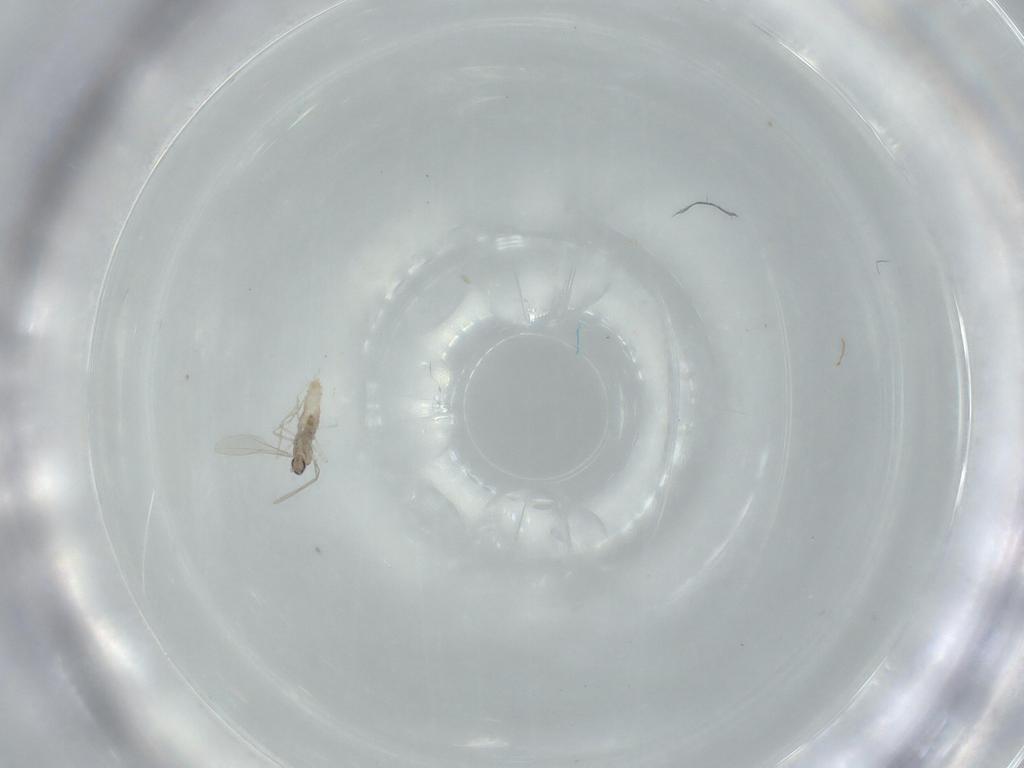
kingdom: Animalia
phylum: Arthropoda
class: Insecta
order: Diptera
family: Cecidomyiidae
